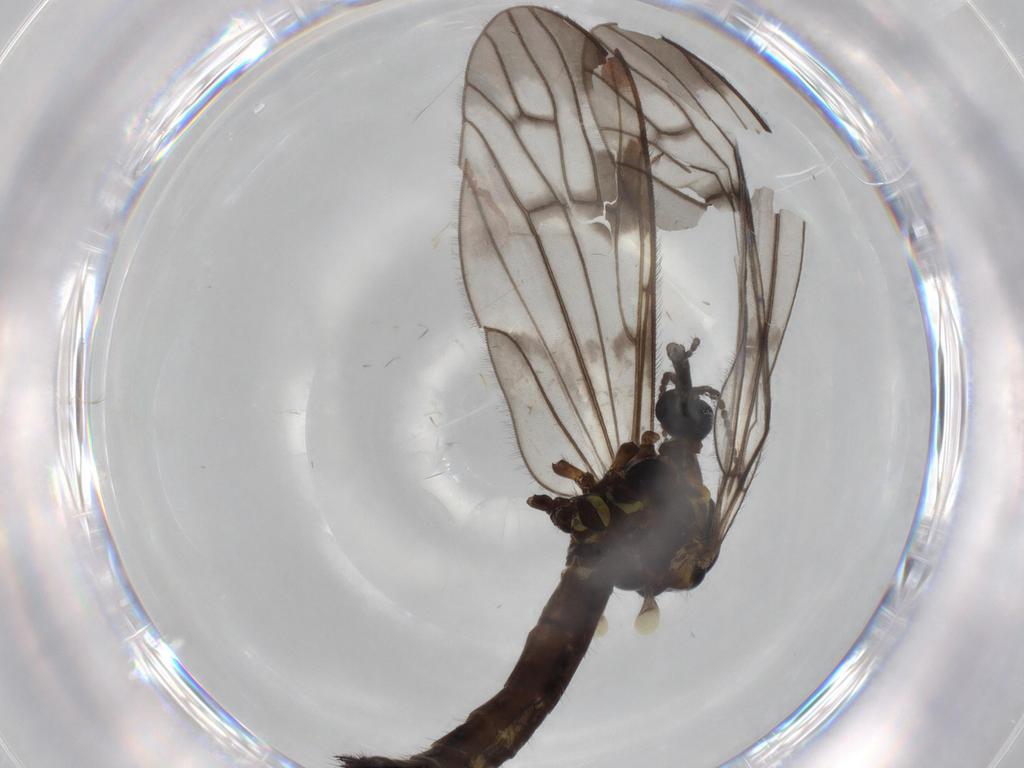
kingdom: Animalia
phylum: Arthropoda
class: Insecta
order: Diptera
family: Limoniidae
